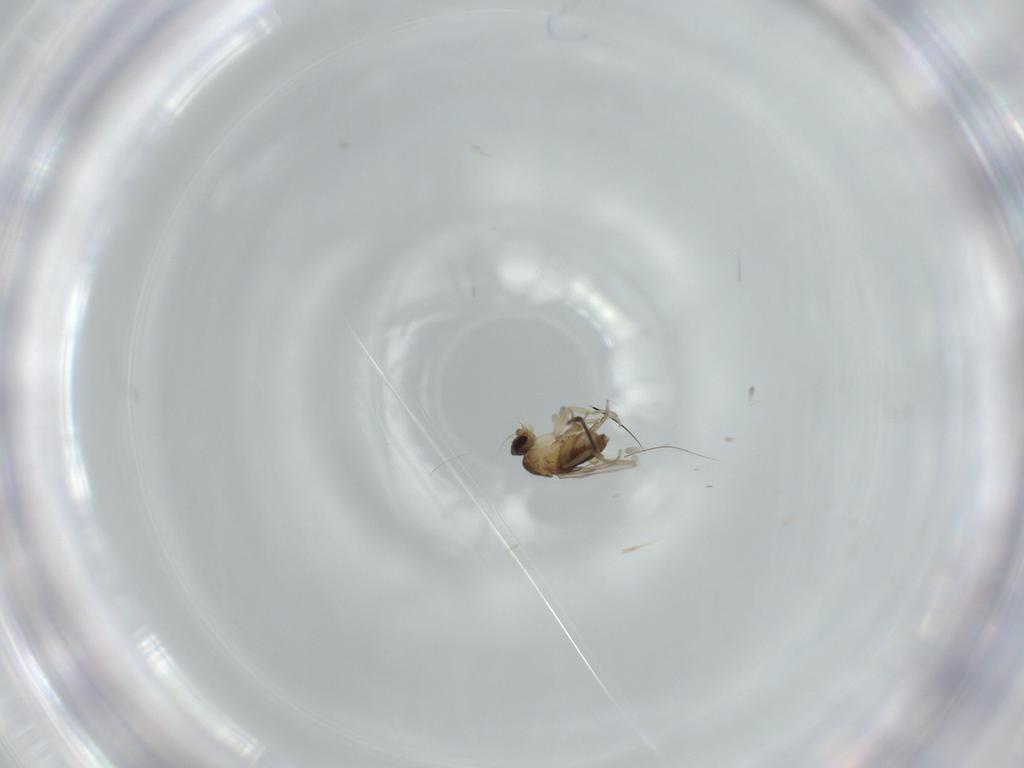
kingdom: Animalia
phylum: Arthropoda
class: Insecta
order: Diptera
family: Phoridae
